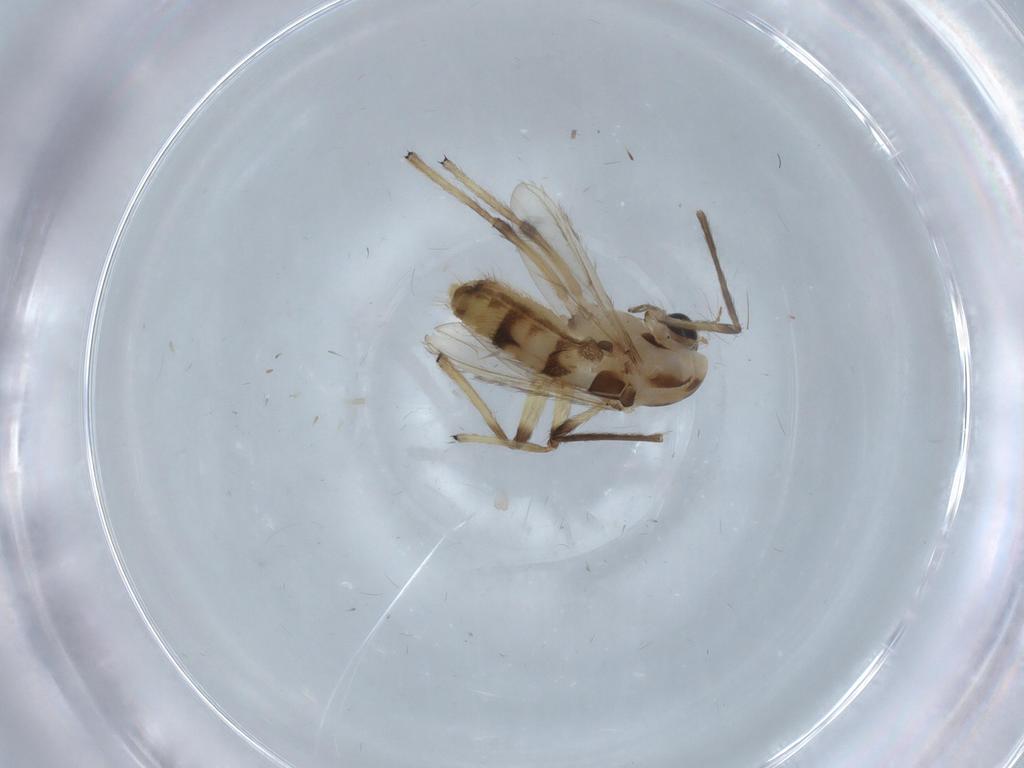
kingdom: Animalia
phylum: Arthropoda
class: Insecta
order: Diptera
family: Chironomidae
